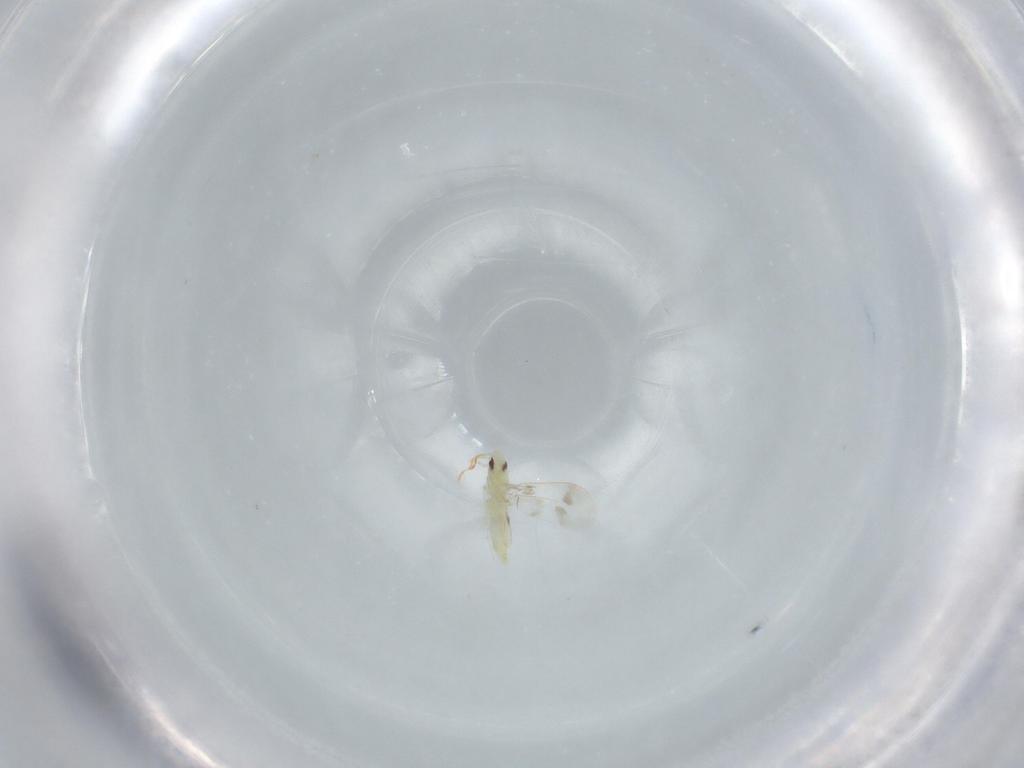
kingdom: Animalia
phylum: Arthropoda
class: Insecta
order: Hemiptera
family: Aleyrodidae
